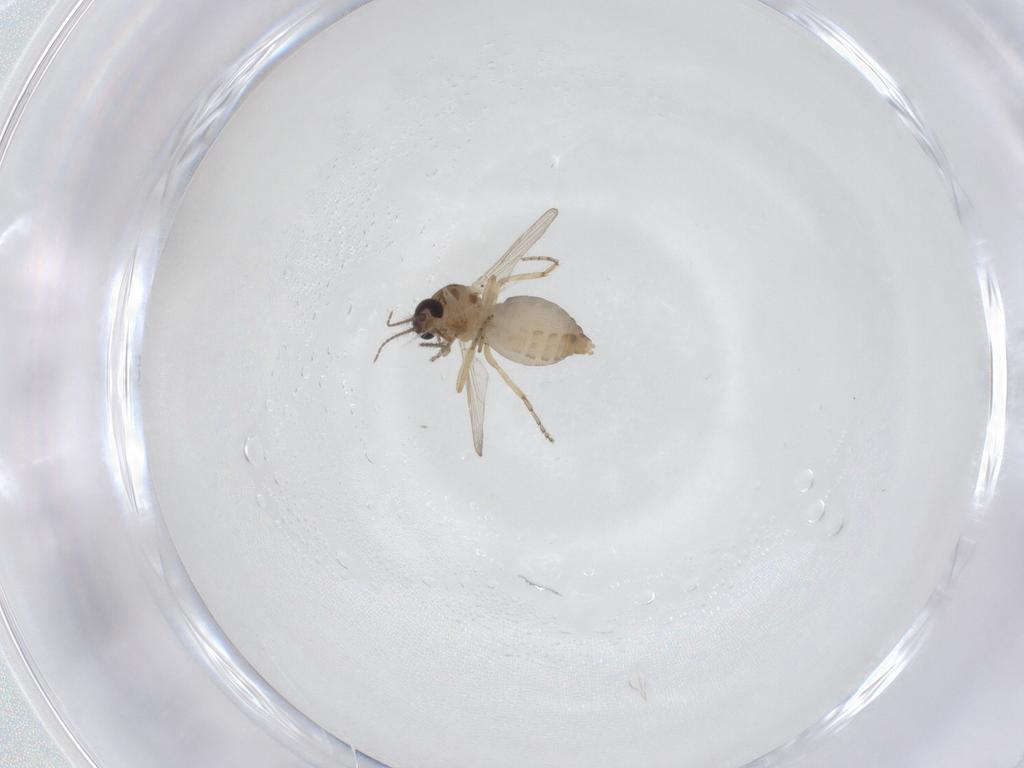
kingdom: Animalia
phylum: Arthropoda
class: Insecta
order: Diptera
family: Ceratopogonidae
